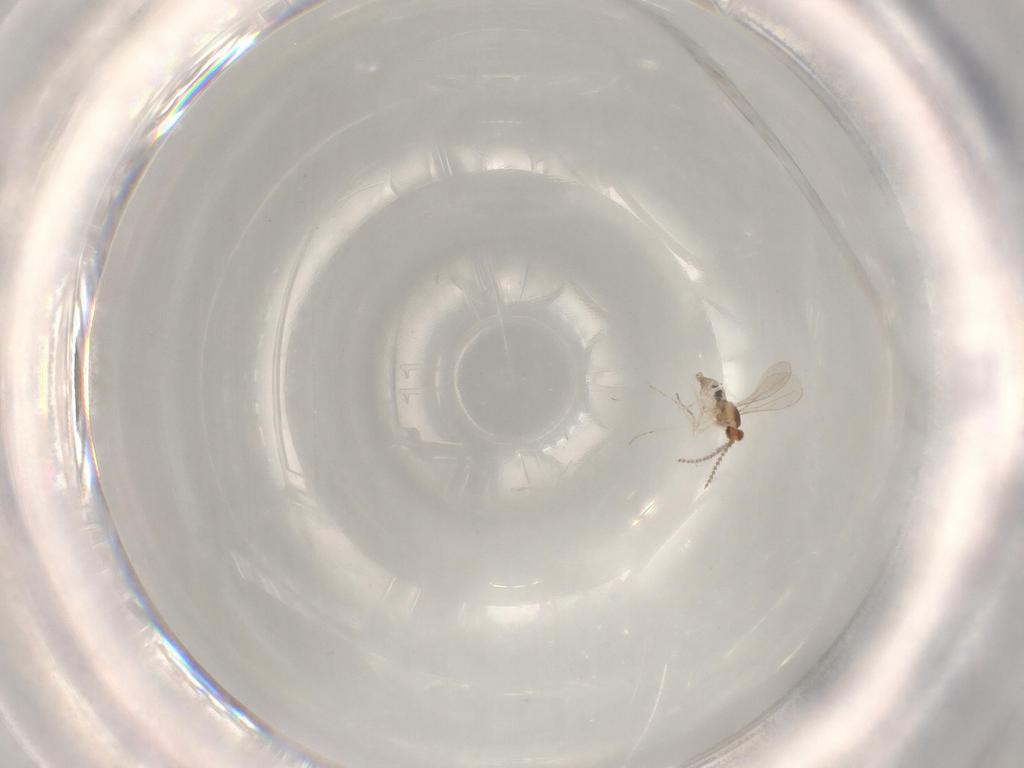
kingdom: Animalia
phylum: Arthropoda
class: Insecta
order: Diptera
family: Cecidomyiidae
